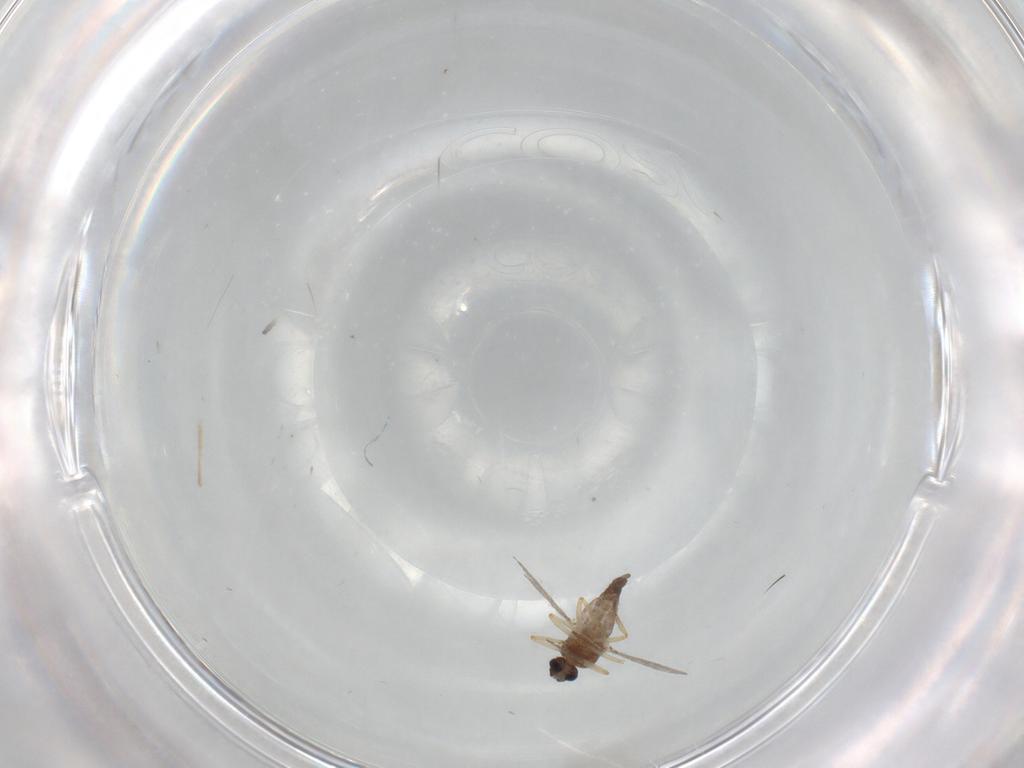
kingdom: Animalia
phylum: Arthropoda
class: Insecta
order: Diptera
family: Ceratopogonidae
